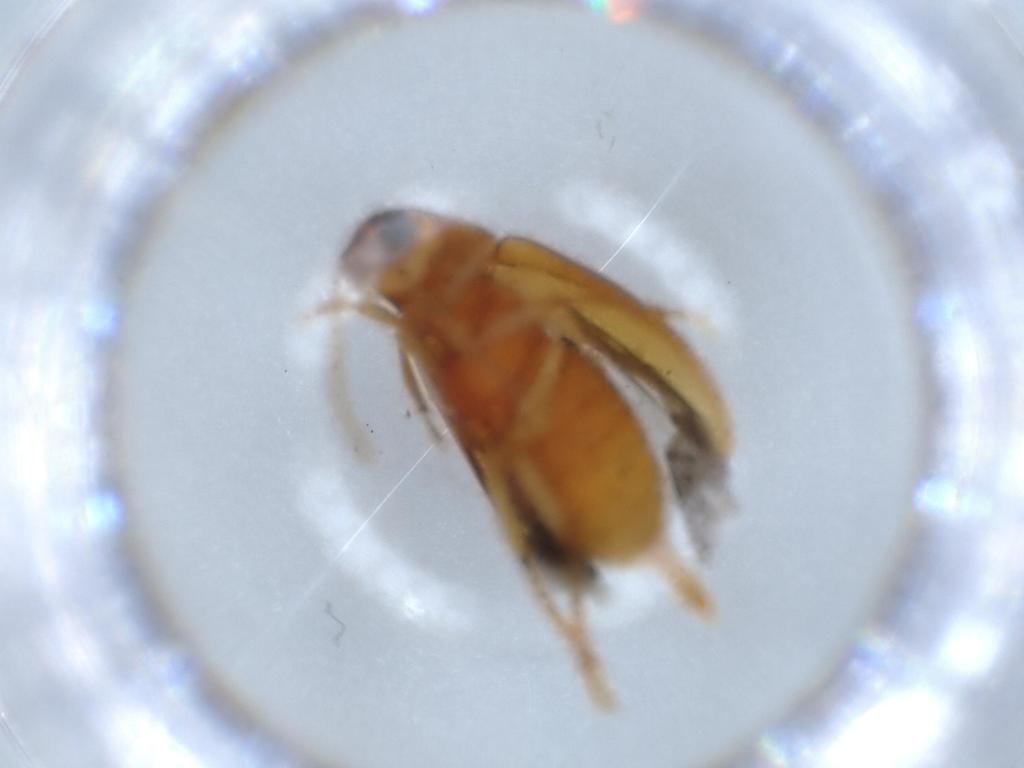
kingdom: Animalia
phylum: Arthropoda
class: Insecta
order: Coleoptera
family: Ptilodactylidae
